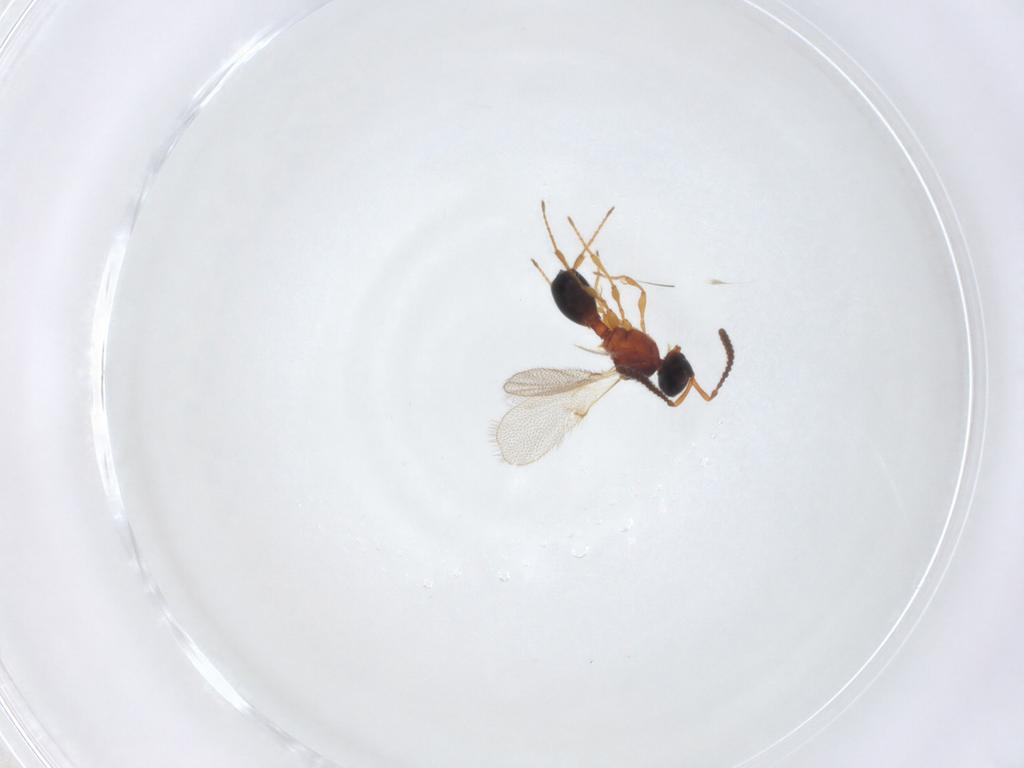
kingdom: Animalia
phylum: Arthropoda
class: Insecta
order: Hymenoptera
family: Diapriidae
